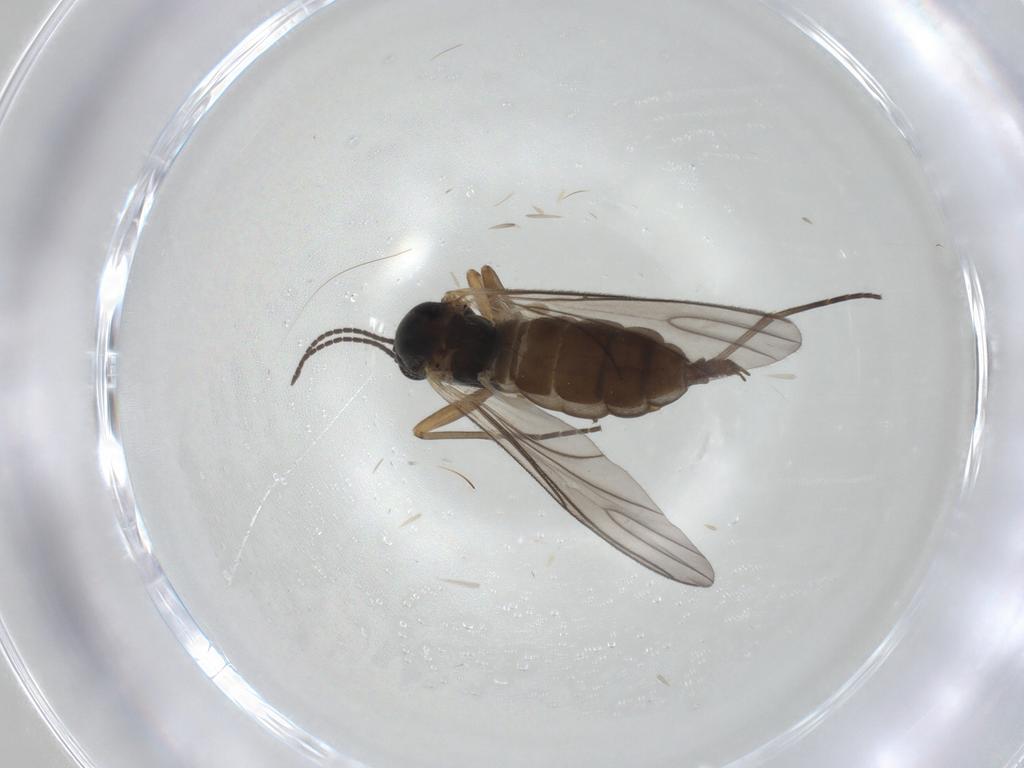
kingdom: Animalia
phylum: Arthropoda
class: Insecta
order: Diptera
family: Sciaridae
